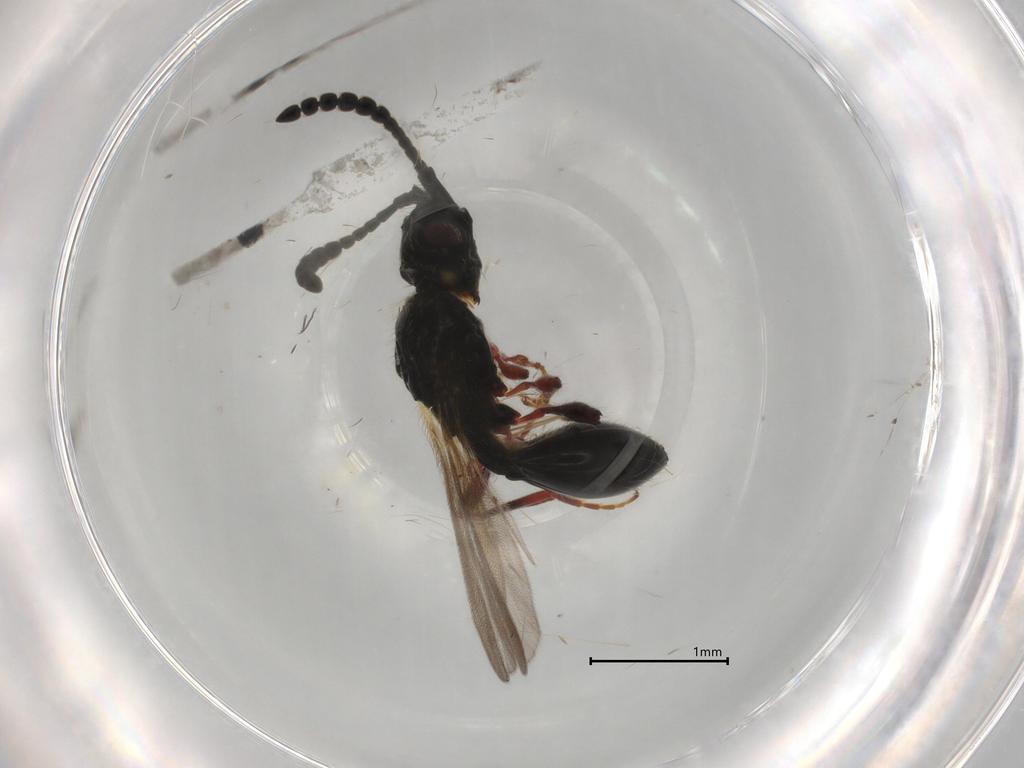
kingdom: Animalia
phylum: Arthropoda
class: Insecta
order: Hymenoptera
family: Diapriidae
